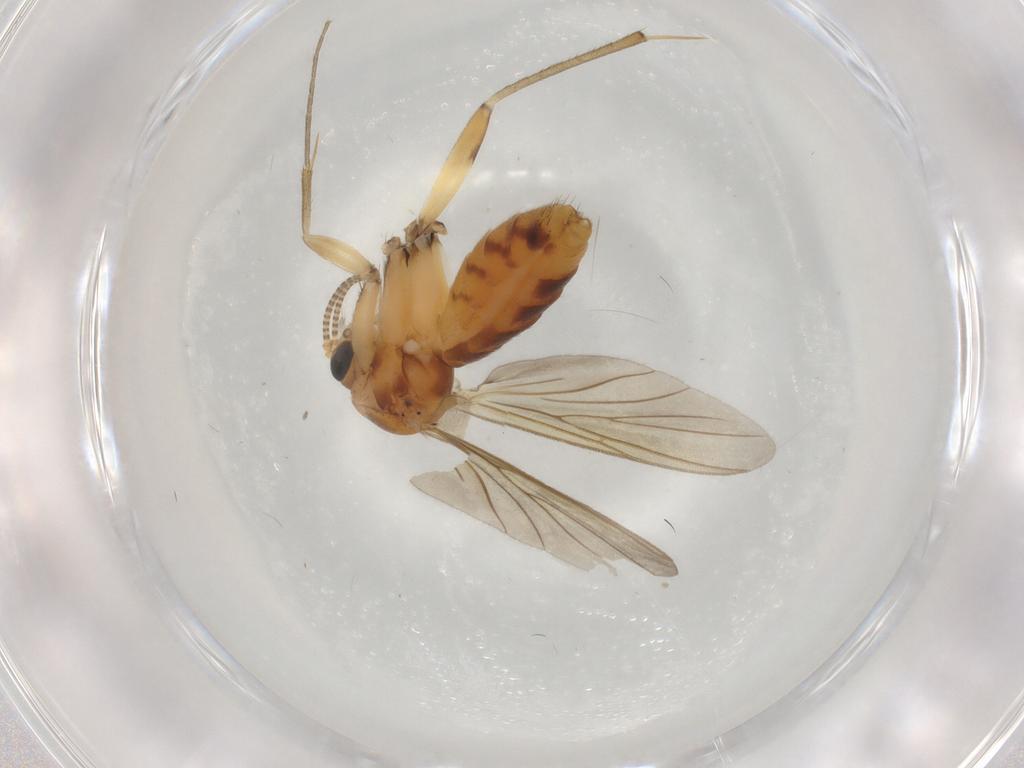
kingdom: Animalia
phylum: Arthropoda
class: Insecta
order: Diptera
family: Mycetophilidae
